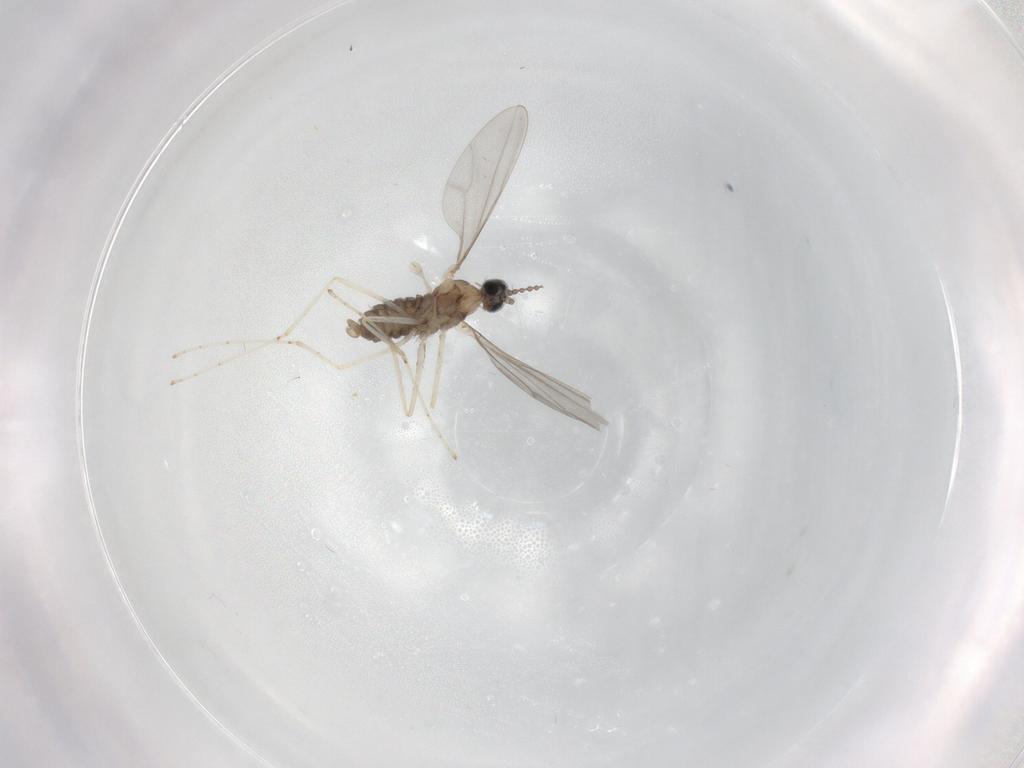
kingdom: Animalia
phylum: Arthropoda
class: Insecta
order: Diptera
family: Cecidomyiidae
